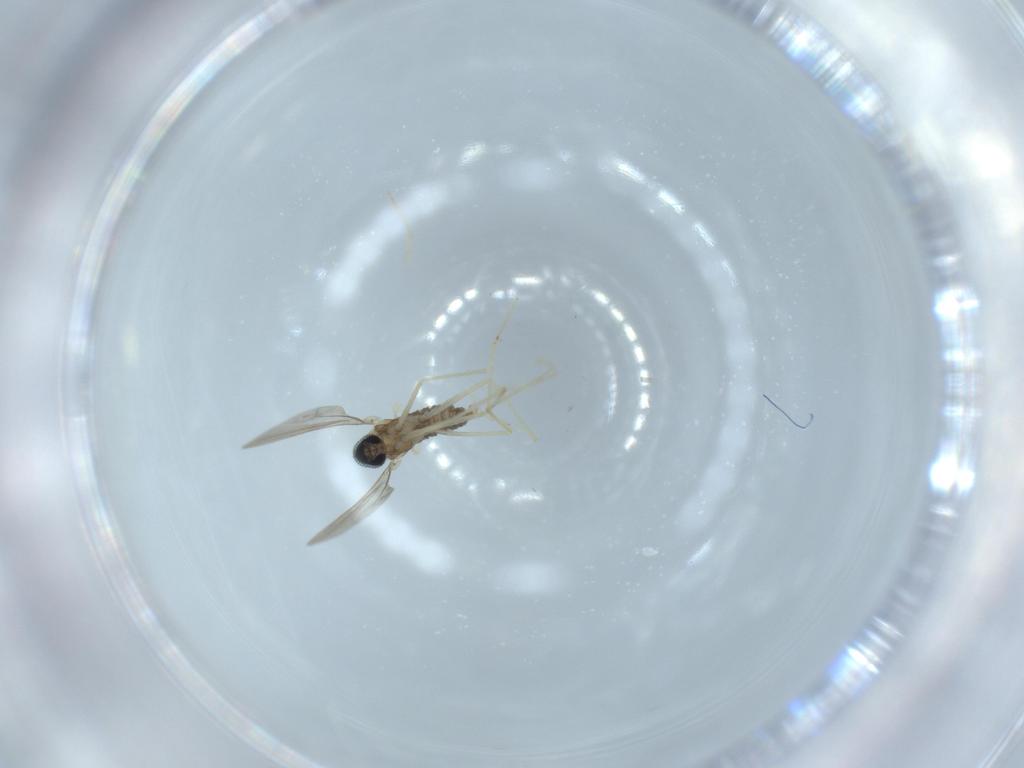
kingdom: Animalia
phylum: Arthropoda
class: Insecta
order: Diptera
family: Cecidomyiidae
